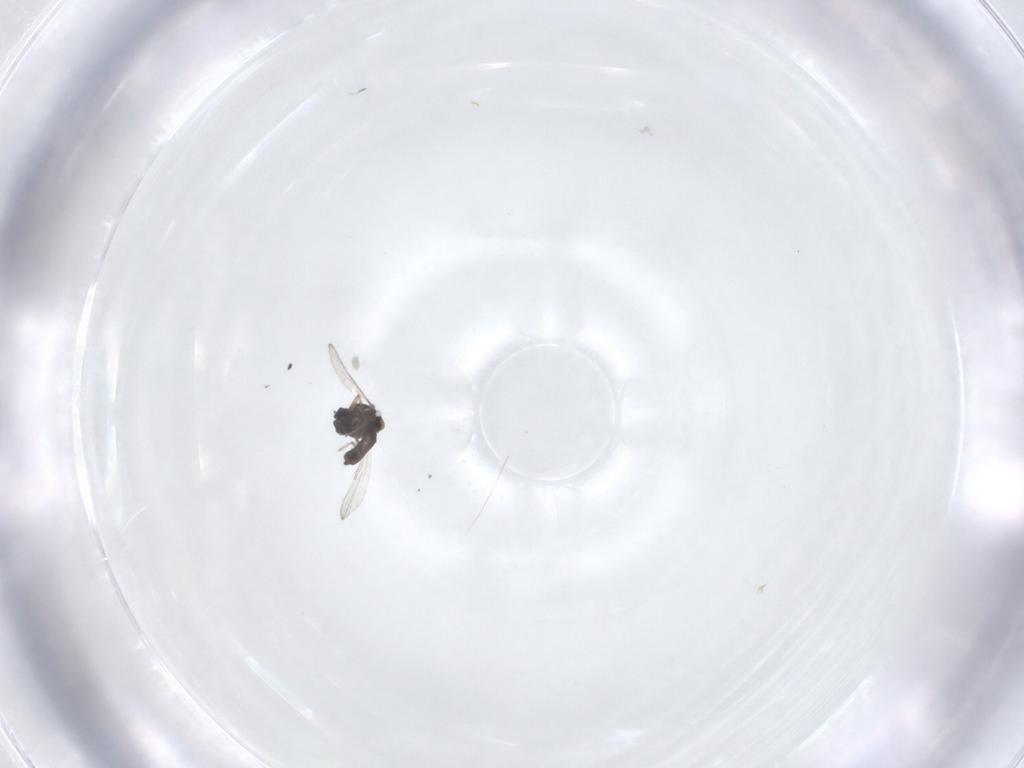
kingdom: Animalia
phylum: Arthropoda
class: Insecta
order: Diptera
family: Ceratopogonidae
